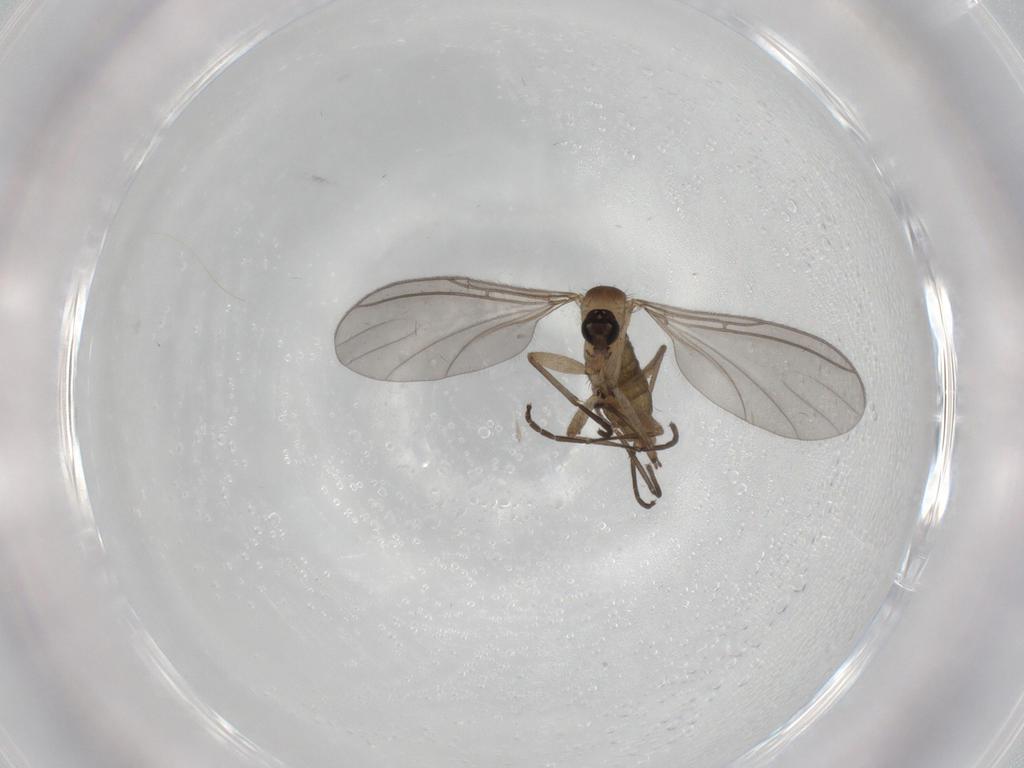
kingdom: Animalia
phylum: Arthropoda
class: Insecta
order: Diptera
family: Sciaridae
